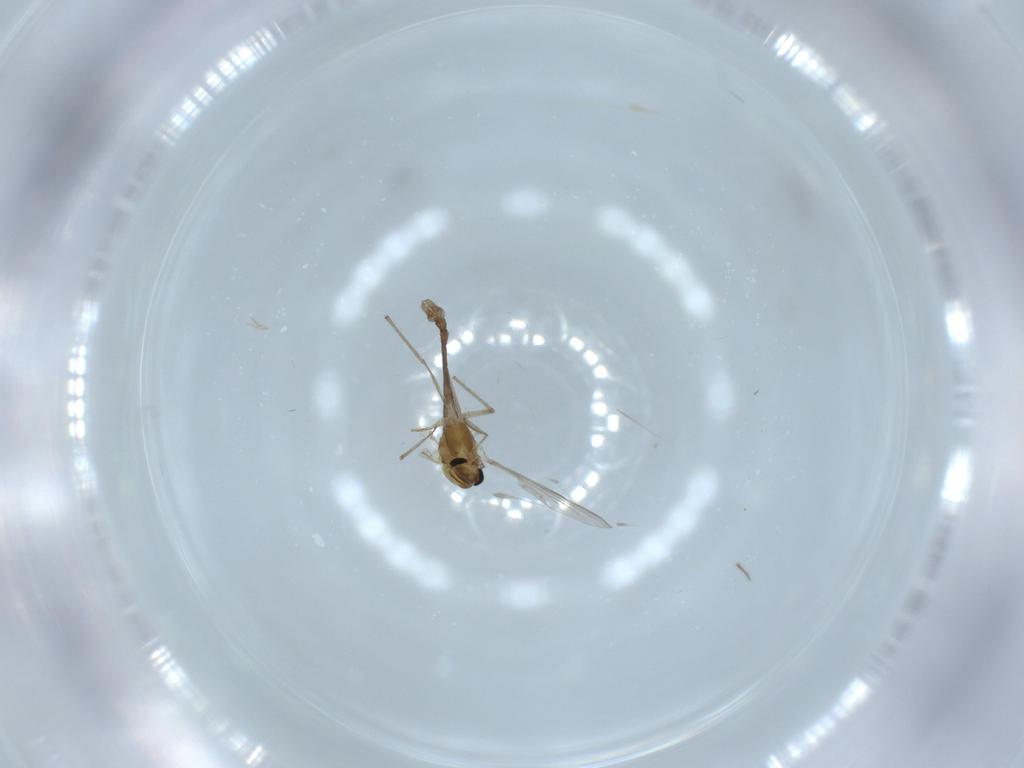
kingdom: Animalia
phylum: Arthropoda
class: Insecta
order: Diptera
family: Chironomidae
